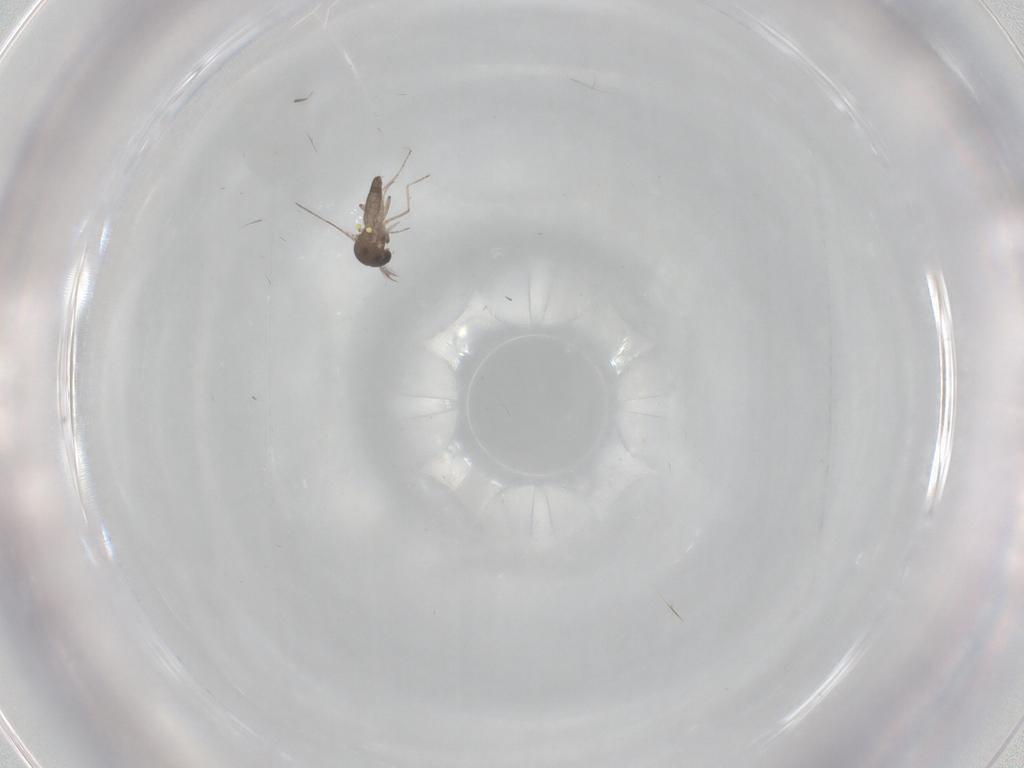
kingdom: Animalia
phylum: Arthropoda
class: Insecta
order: Diptera
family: Ceratopogonidae
